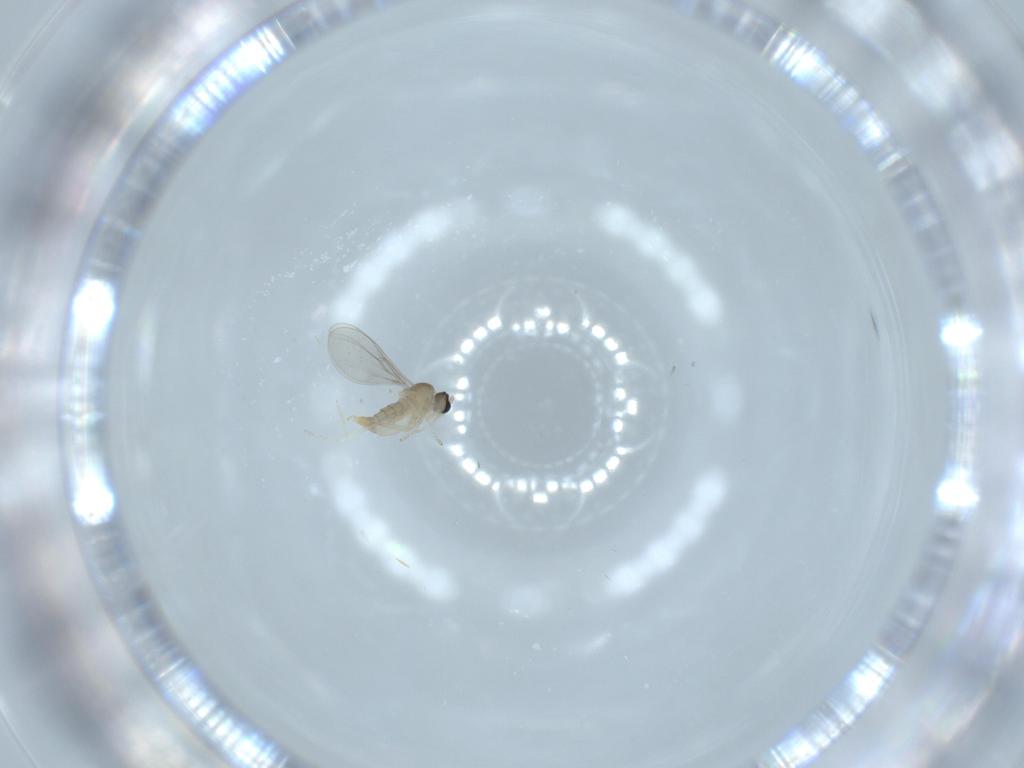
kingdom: Animalia
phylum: Arthropoda
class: Insecta
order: Diptera
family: Cecidomyiidae
